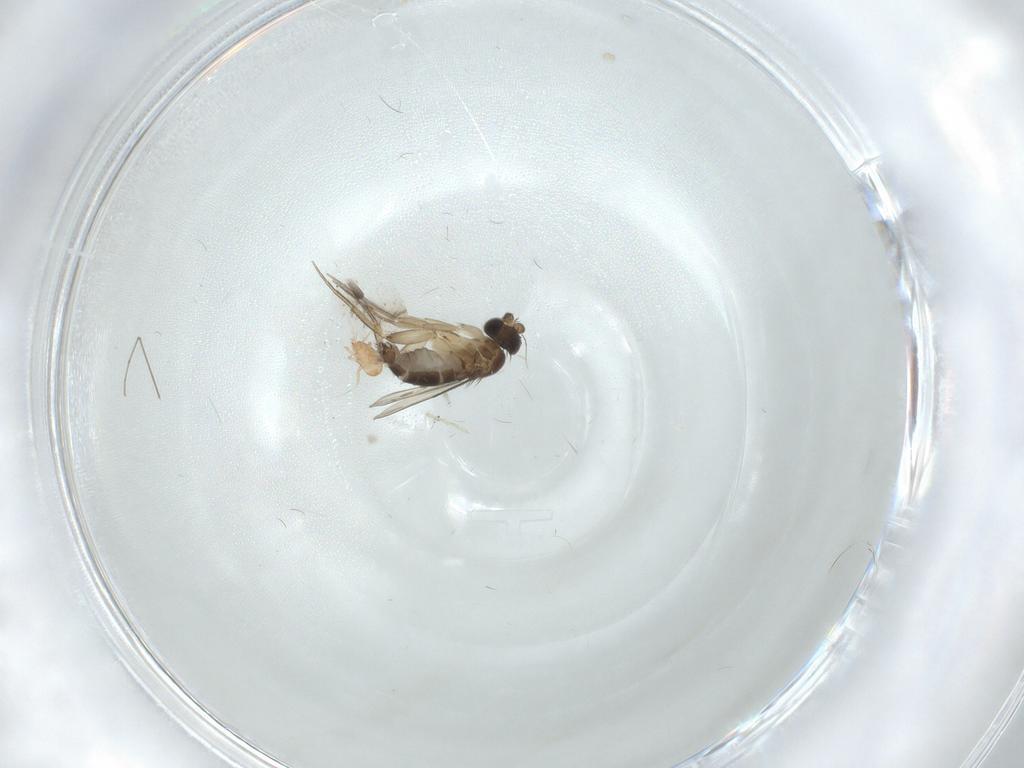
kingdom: Animalia
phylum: Arthropoda
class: Insecta
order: Diptera
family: Phoridae
